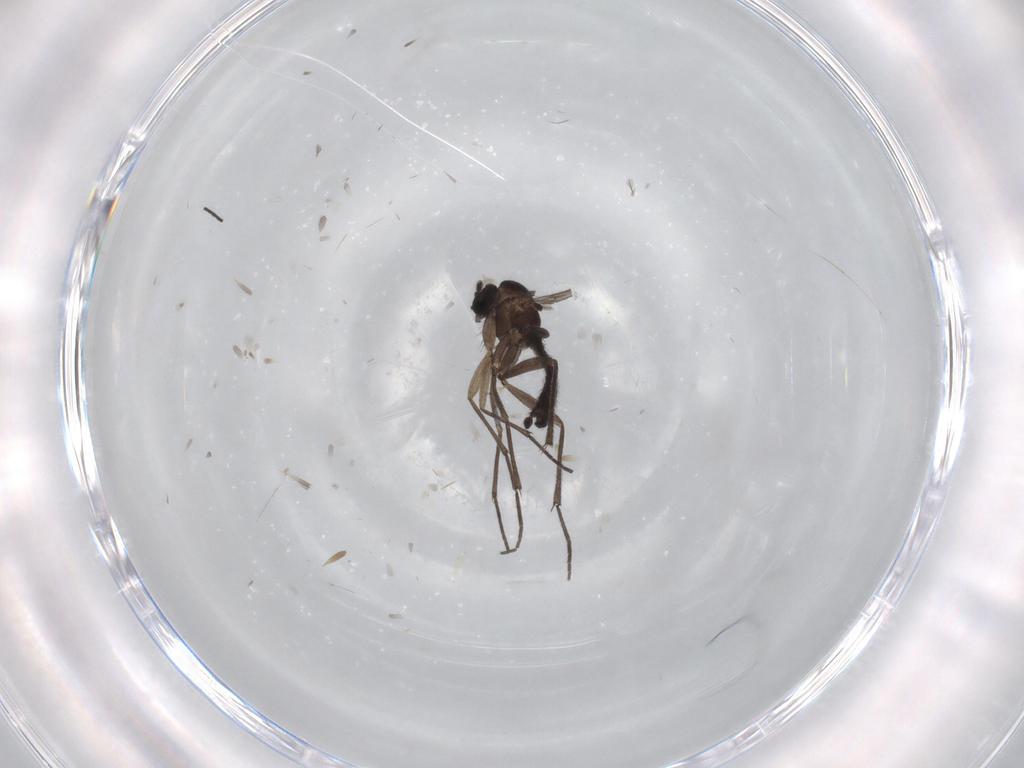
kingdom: Animalia
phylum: Arthropoda
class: Insecta
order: Diptera
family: Sciaridae
